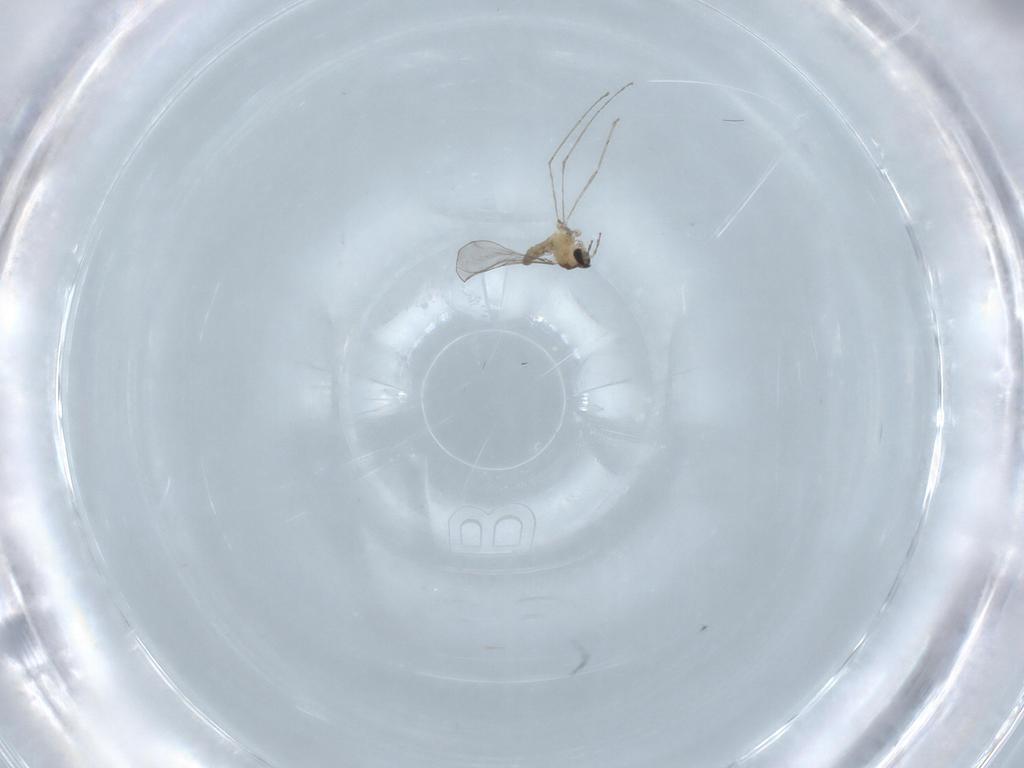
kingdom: Animalia
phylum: Arthropoda
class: Insecta
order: Diptera
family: Cecidomyiidae
